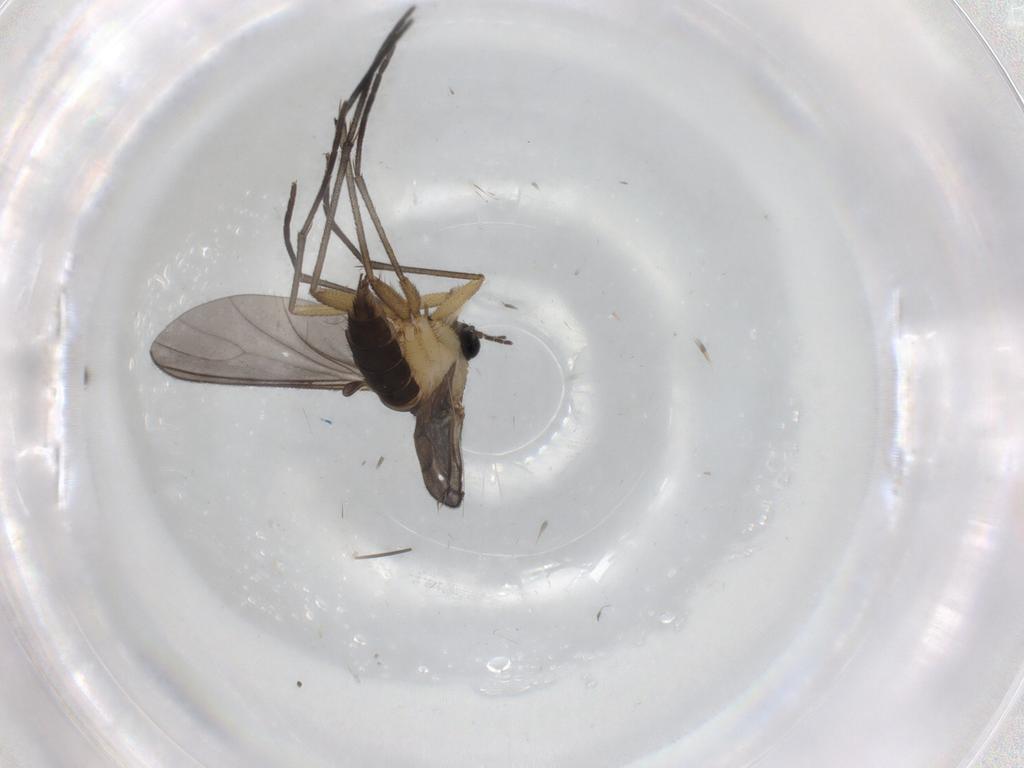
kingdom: Animalia
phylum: Arthropoda
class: Insecta
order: Diptera
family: Sciaridae
